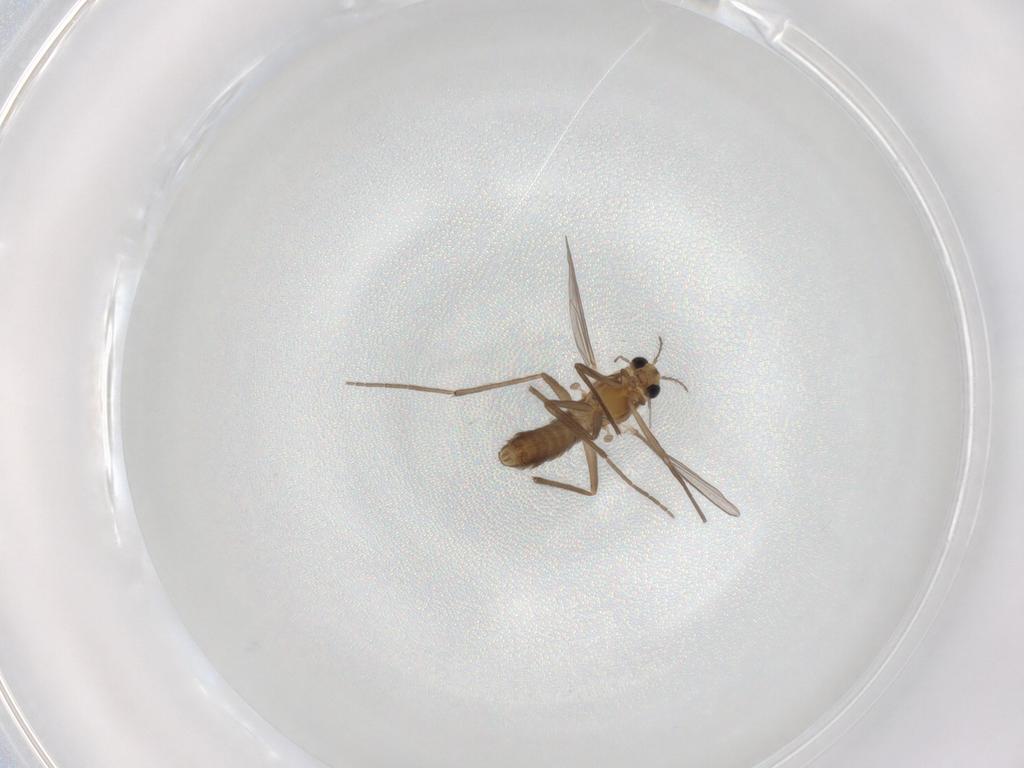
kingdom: Animalia
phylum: Arthropoda
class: Insecta
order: Diptera
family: Chironomidae
